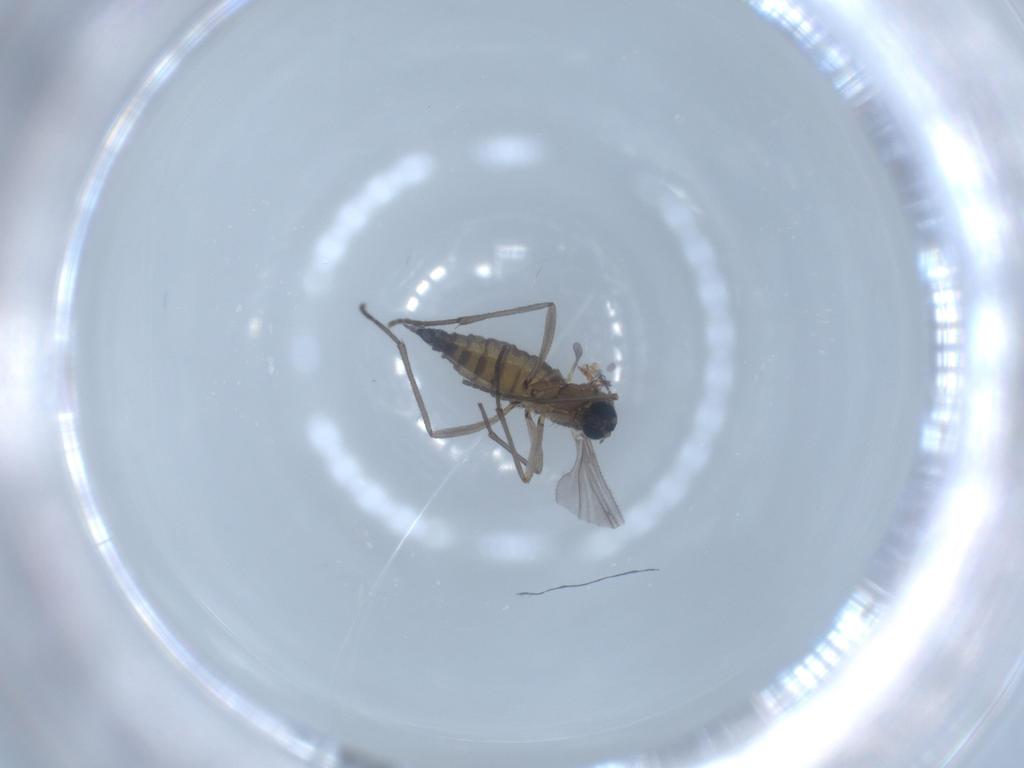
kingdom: Animalia
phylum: Arthropoda
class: Insecta
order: Diptera
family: Sciaridae
